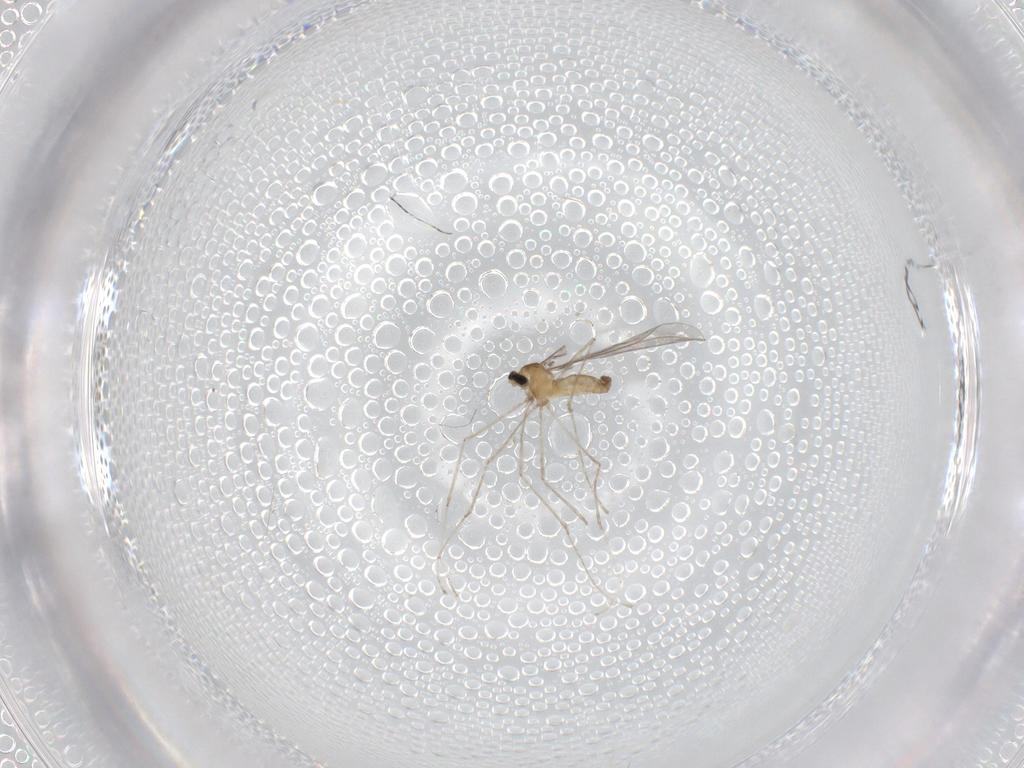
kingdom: Animalia
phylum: Arthropoda
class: Insecta
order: Diptera
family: Cecidomyiidae
